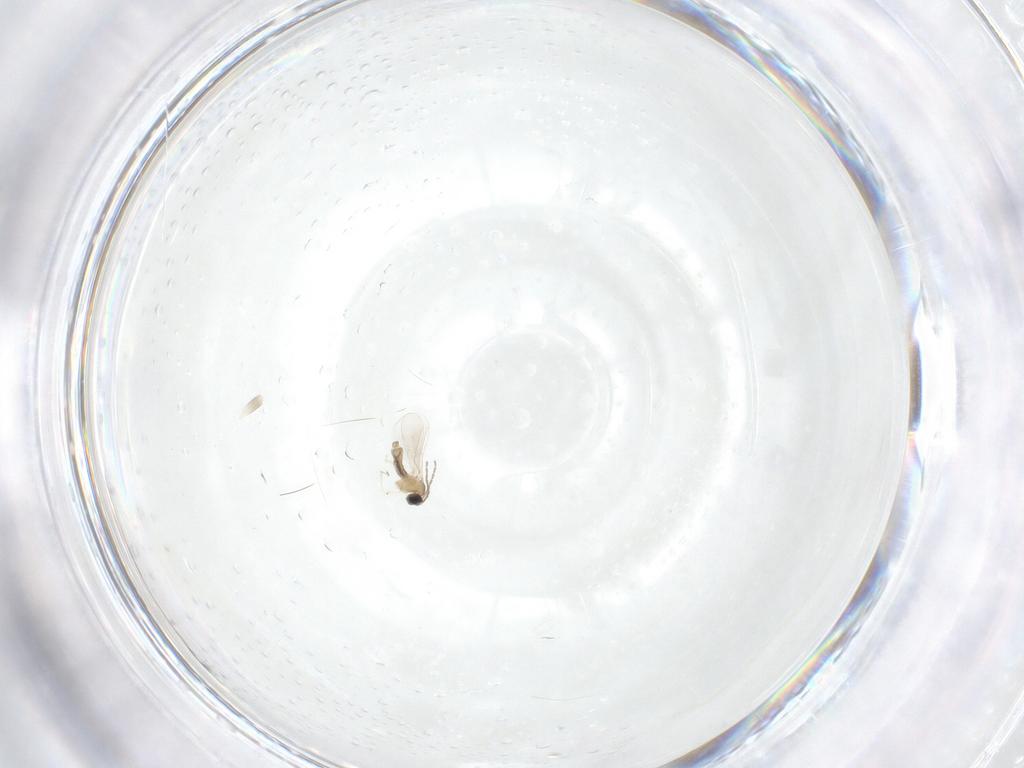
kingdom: Animalia
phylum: Arthropoda
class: Insecta
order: Diptera
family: Cecidomyiidae
